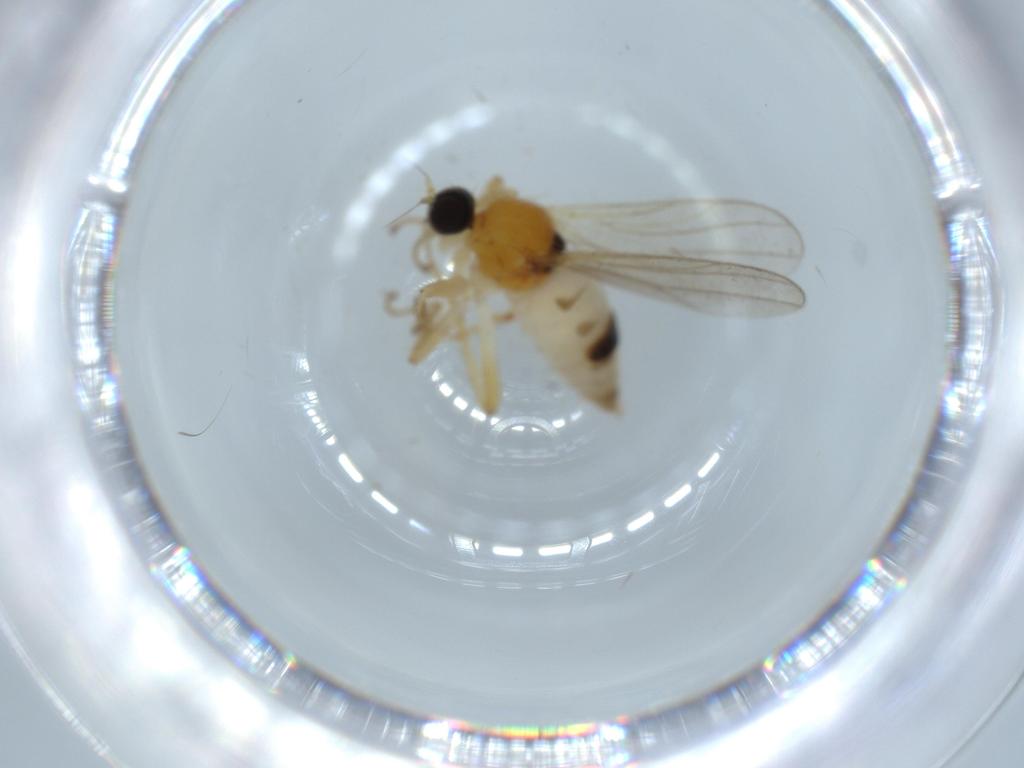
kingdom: Animalia
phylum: Arthropoda
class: Insecta
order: Diptera
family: Hybotidae
